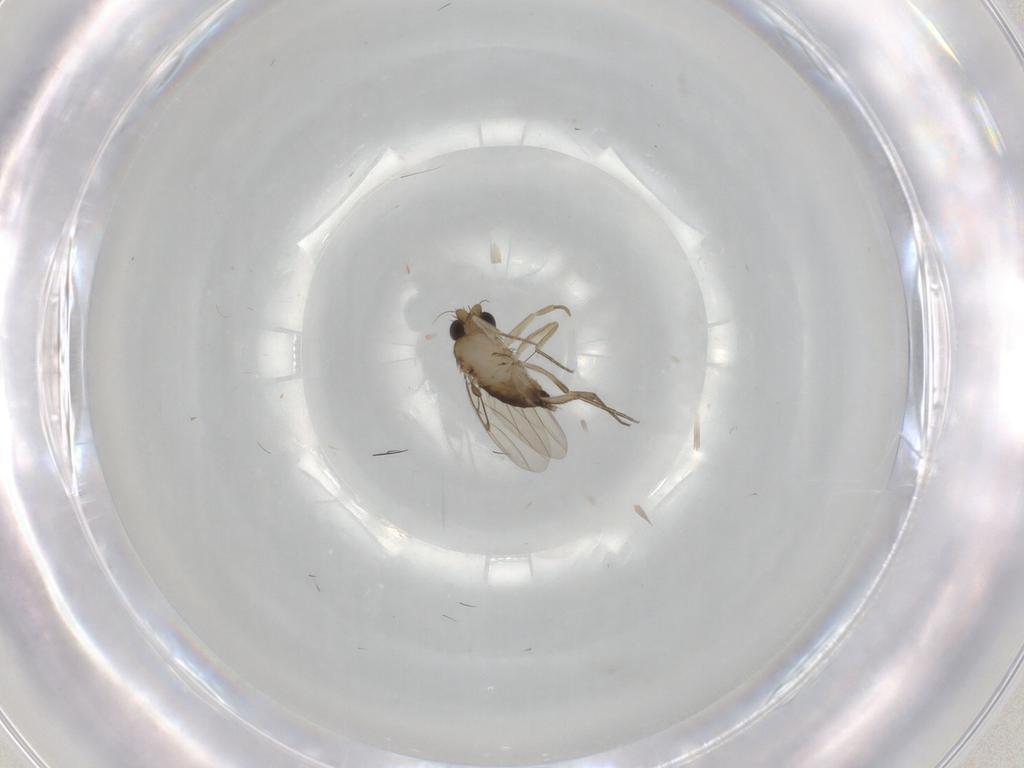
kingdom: Animalia
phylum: Arthropoda
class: Insecta
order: Diptera
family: Phoridae
